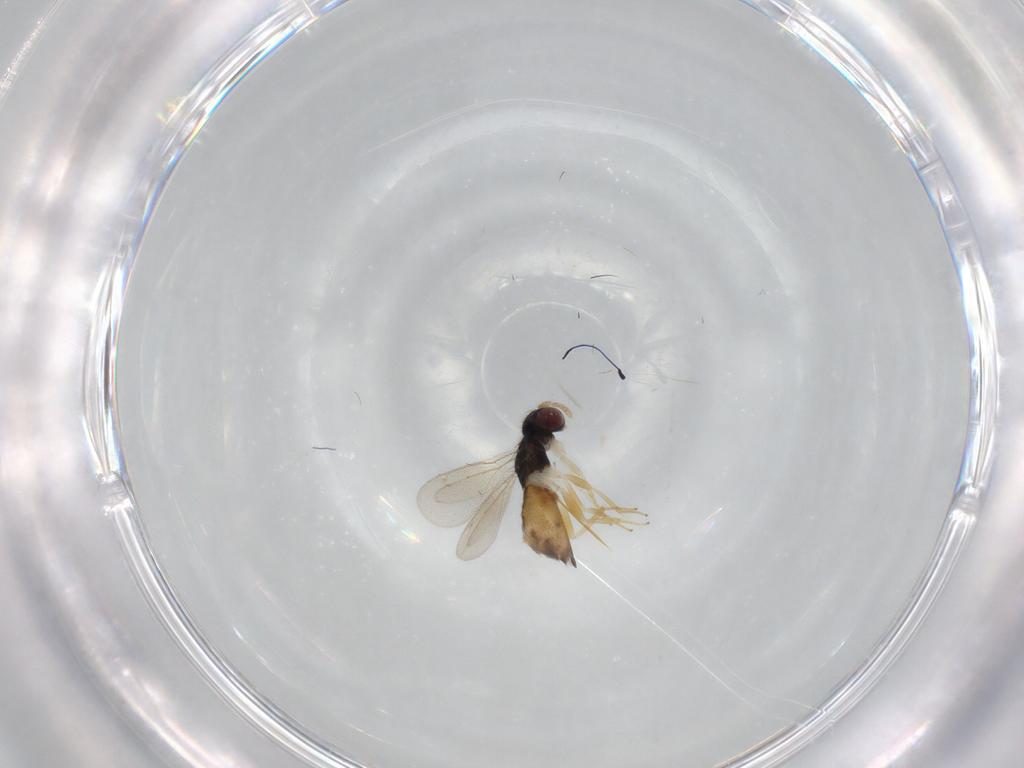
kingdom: Animalia
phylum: Arthropoda
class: Insecta
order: Hymenoptera
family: Eulophidae
